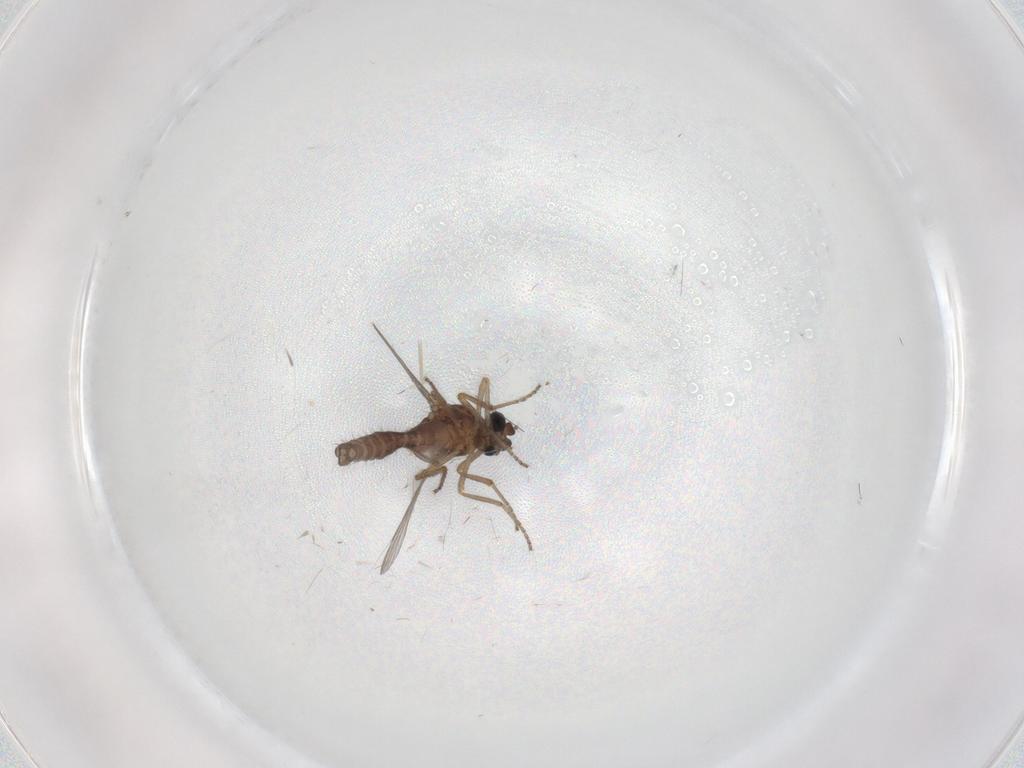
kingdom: Animalia
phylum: Arthropoda
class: Insecta
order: Diptera
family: Ceratopogonidae
